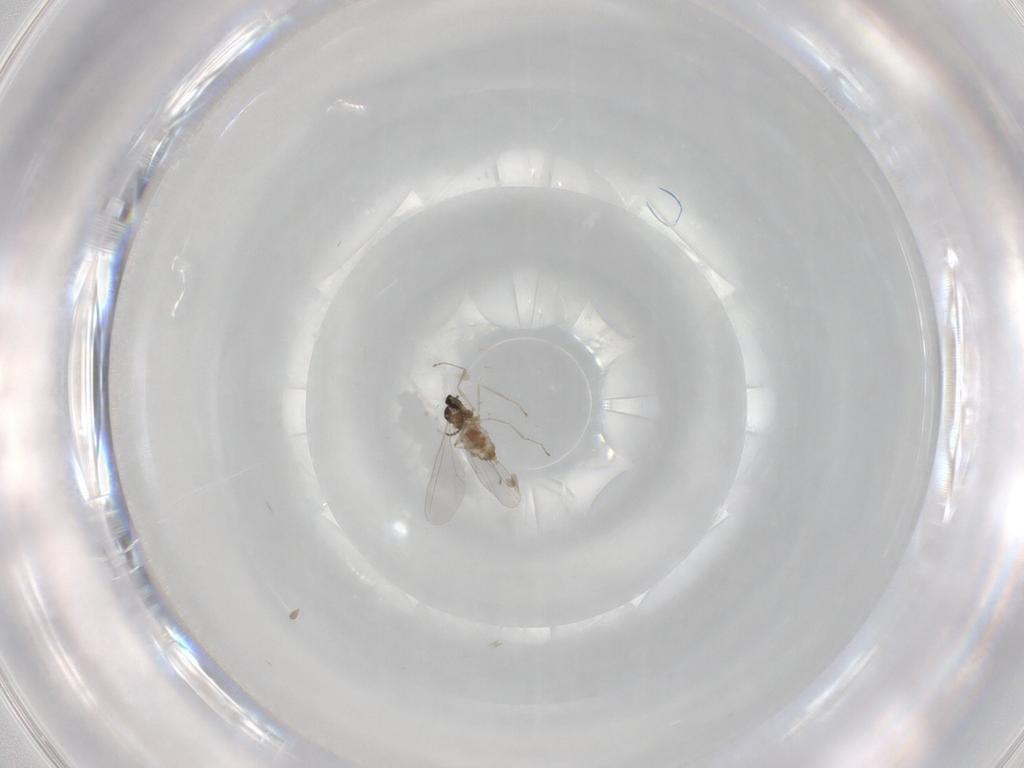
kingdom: Animalia
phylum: Arthropoda
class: Insecta
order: Diptera
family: Cecidomyiidae
